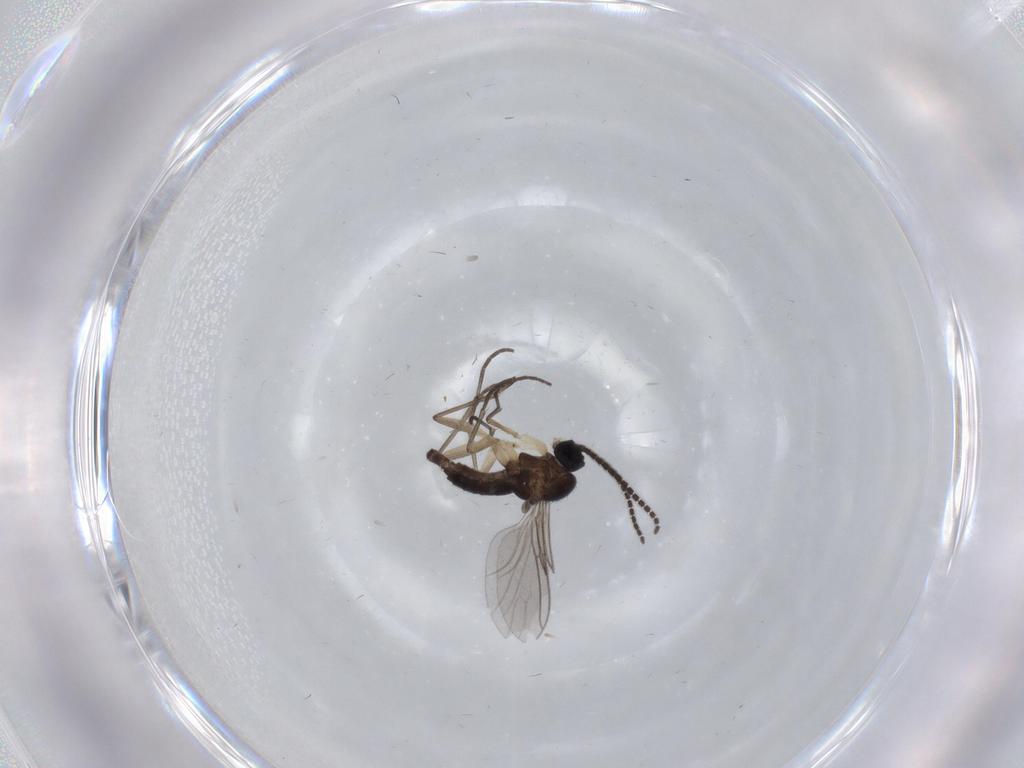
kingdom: Animalia
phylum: Arthropoda
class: Insecta
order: Diptera
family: Sciaridae
